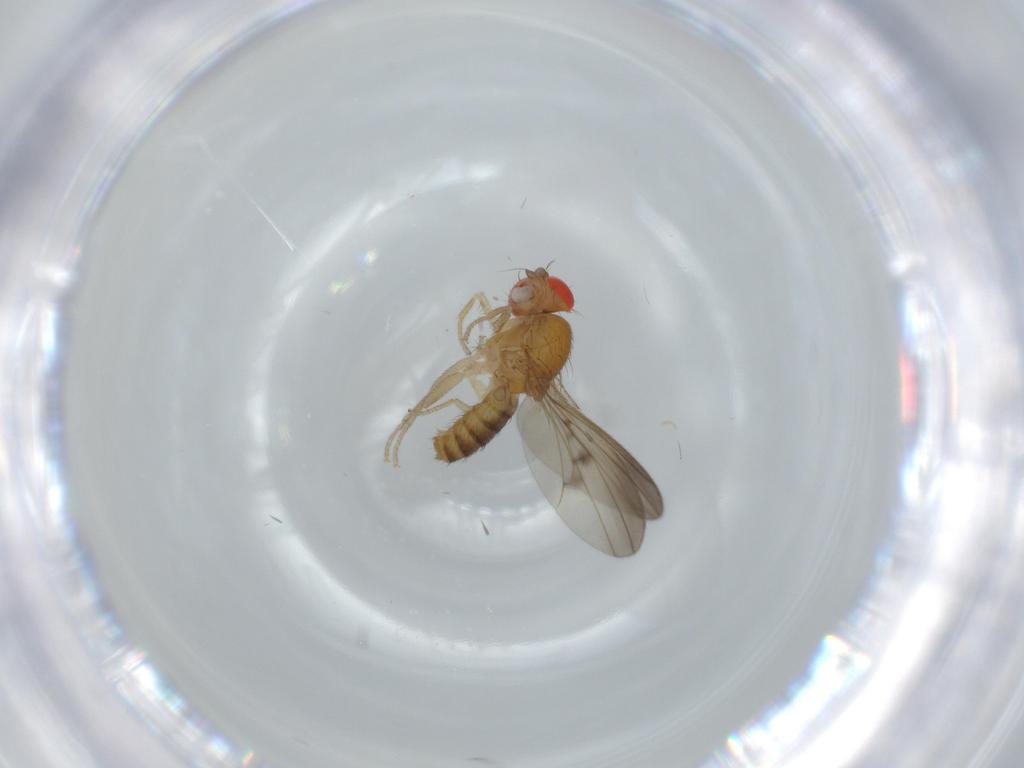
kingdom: Animalia
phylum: Arthropoda
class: Insecta
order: Diptera
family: Drosophilidae
